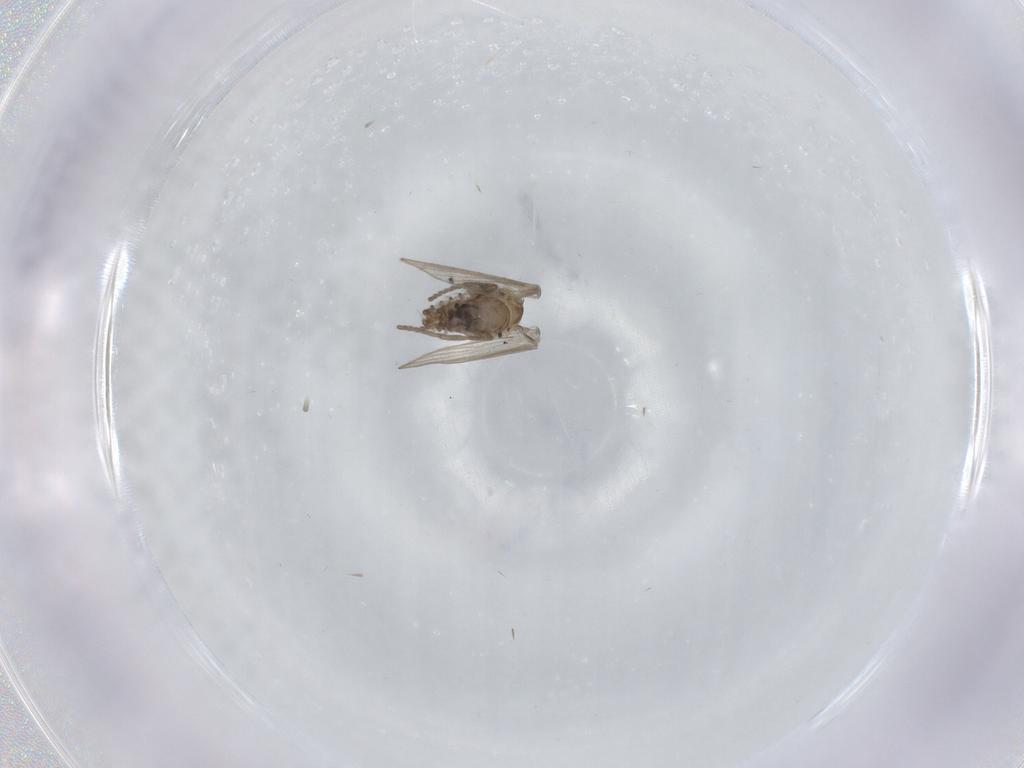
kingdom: Animalia
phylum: Arthropoda
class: Insecta
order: Diptera
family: Psychodidae
